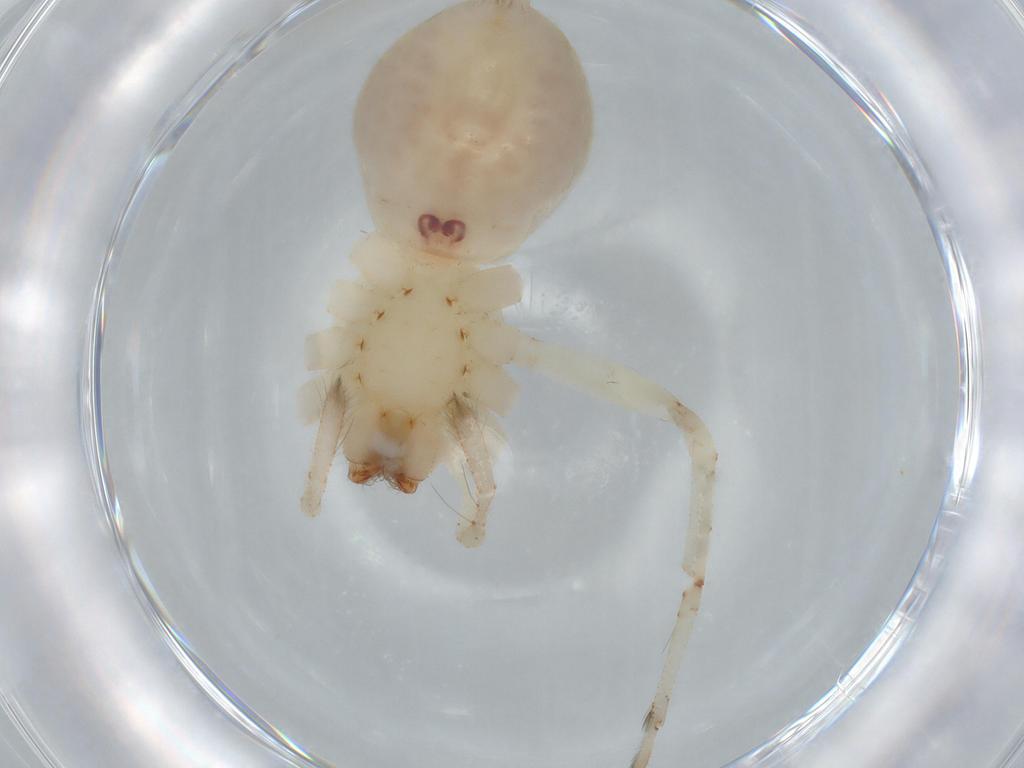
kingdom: Animalia
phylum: Arthropoda
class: Arachnida
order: Araneae
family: Anyphaenidae
